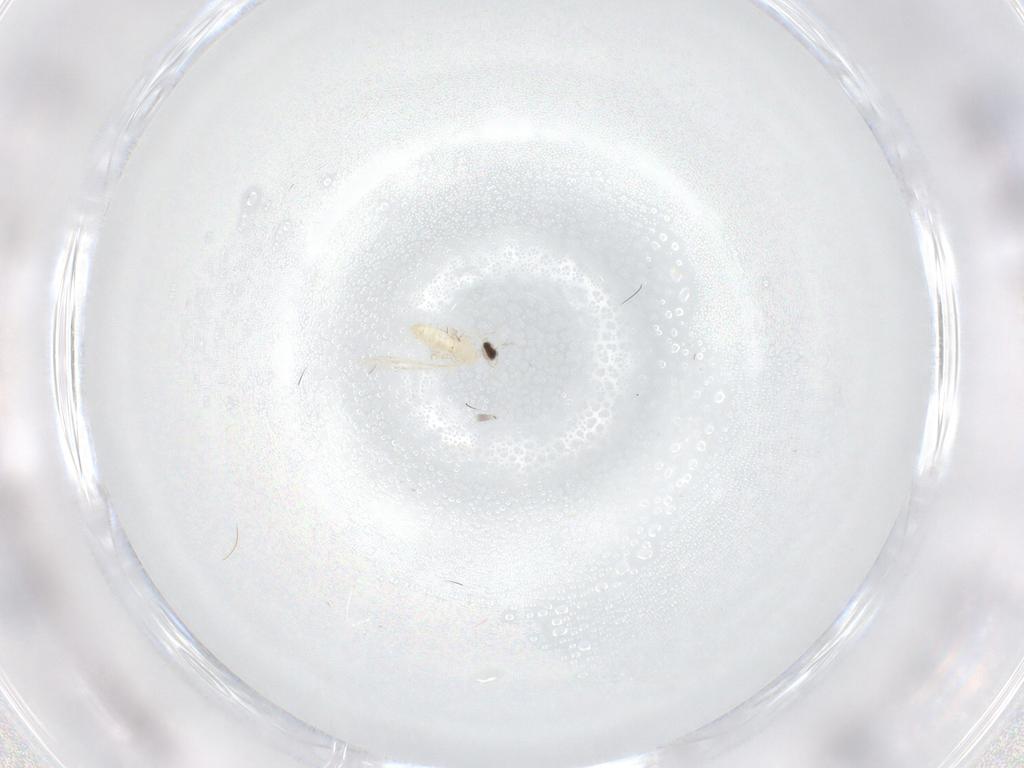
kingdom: Animalia
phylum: Arthropoda
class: Insecta
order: Diptera
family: Cecidomyiidae
